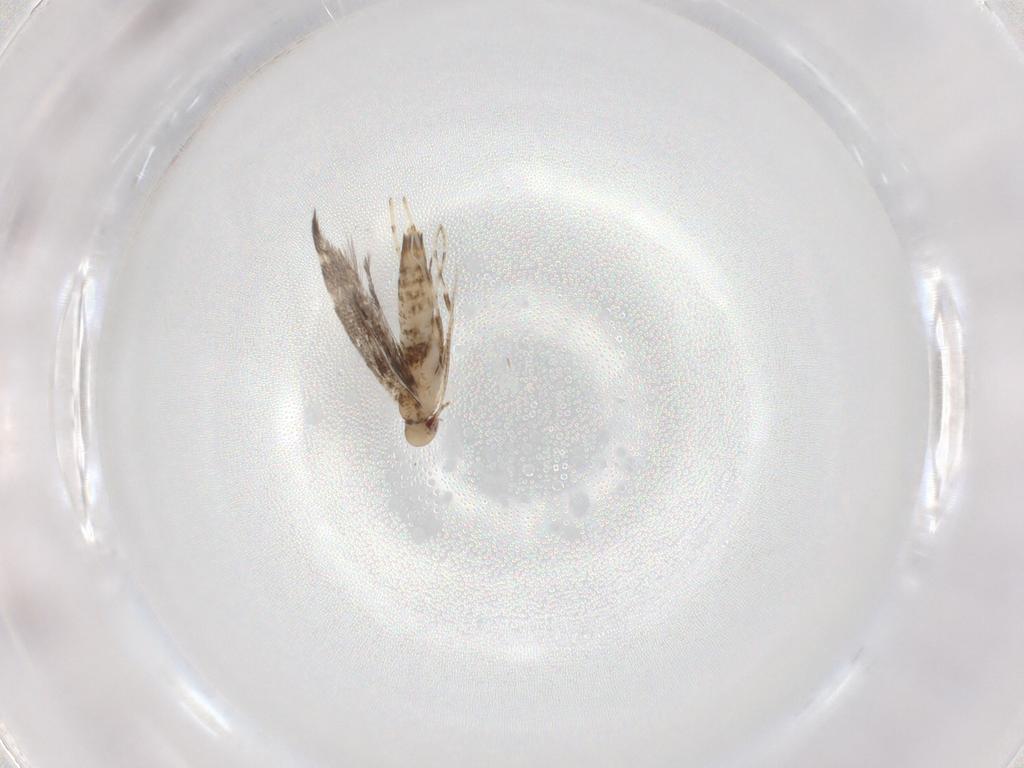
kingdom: Animalia
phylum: Arthropoda
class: Insecta
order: Lepidoptera
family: Gracillariidae
